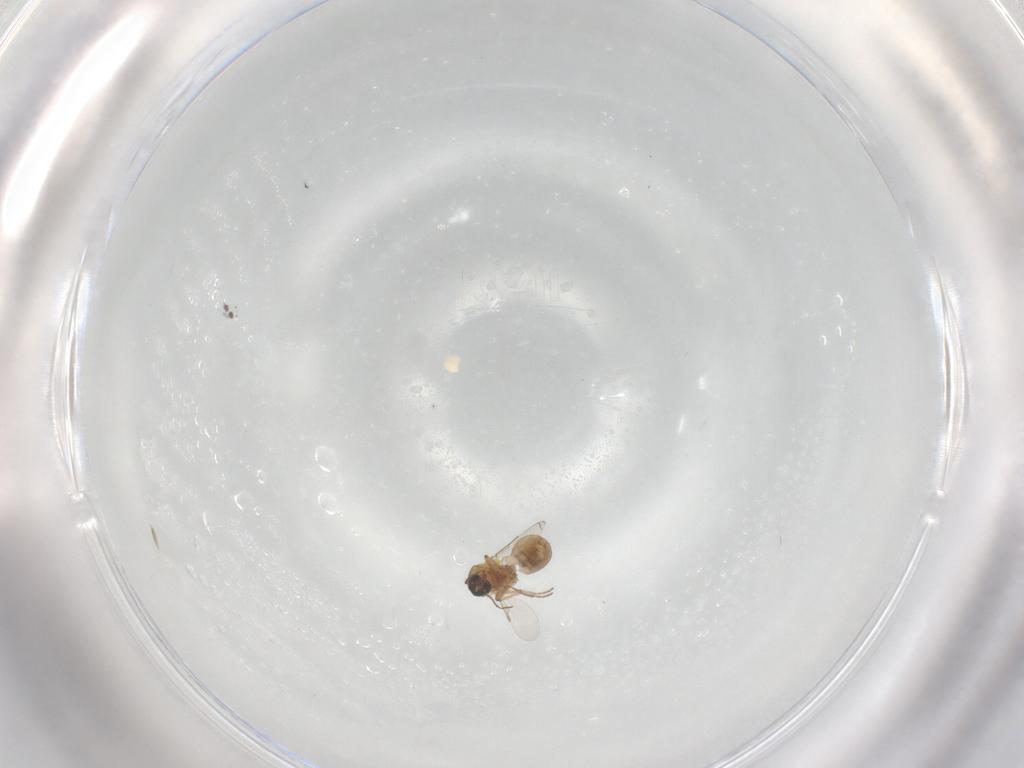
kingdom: Animalia
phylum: Arthropoda
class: Insecta
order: Diptera
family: Ceratopogonidae
